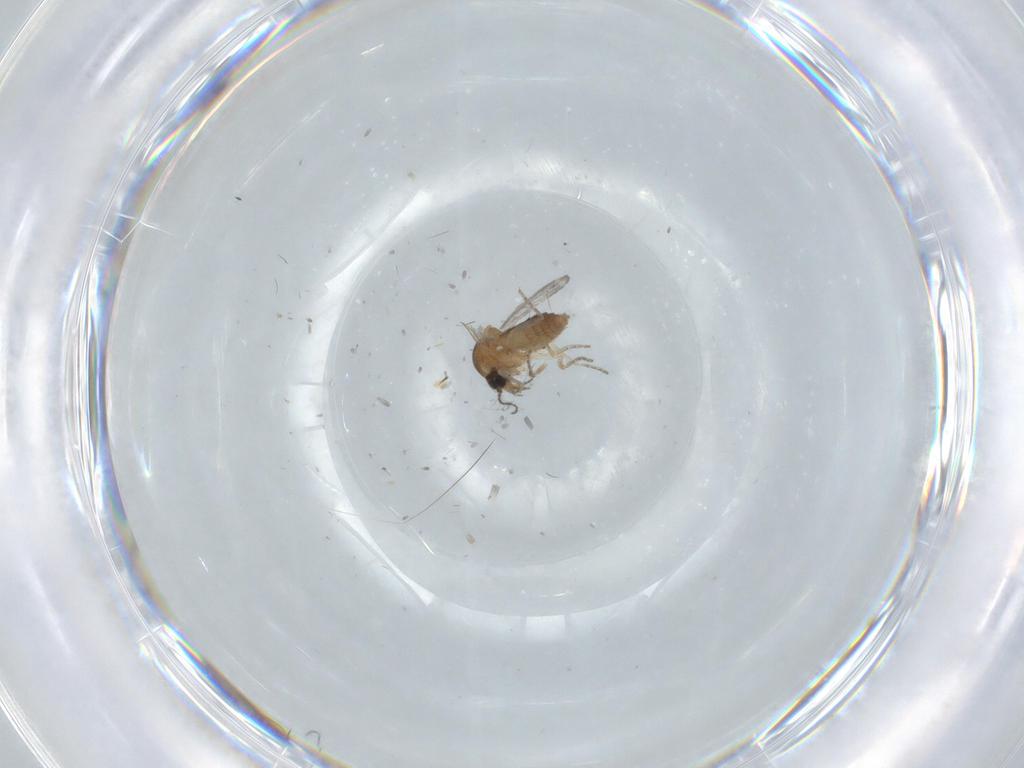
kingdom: Animalia
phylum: Arthropoda
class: Insecta
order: Diptera
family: Ceratopogonidae
